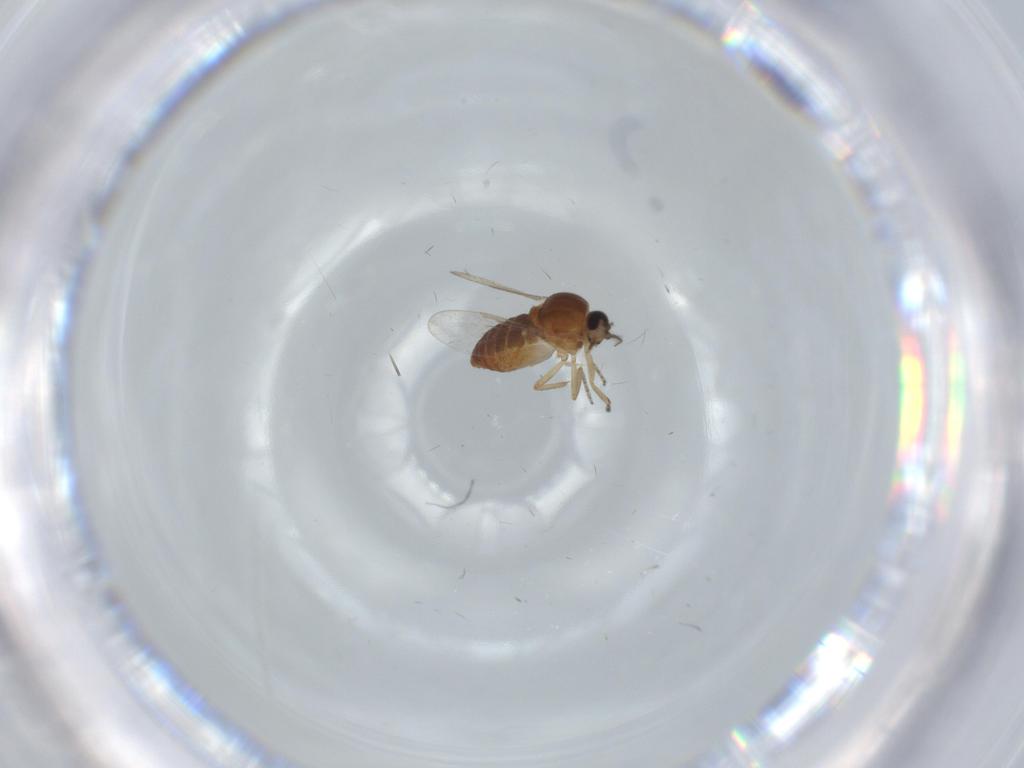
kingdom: Animalia
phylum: Arthropoda
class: Insecta
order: Diptera
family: Ceratopogonidae
